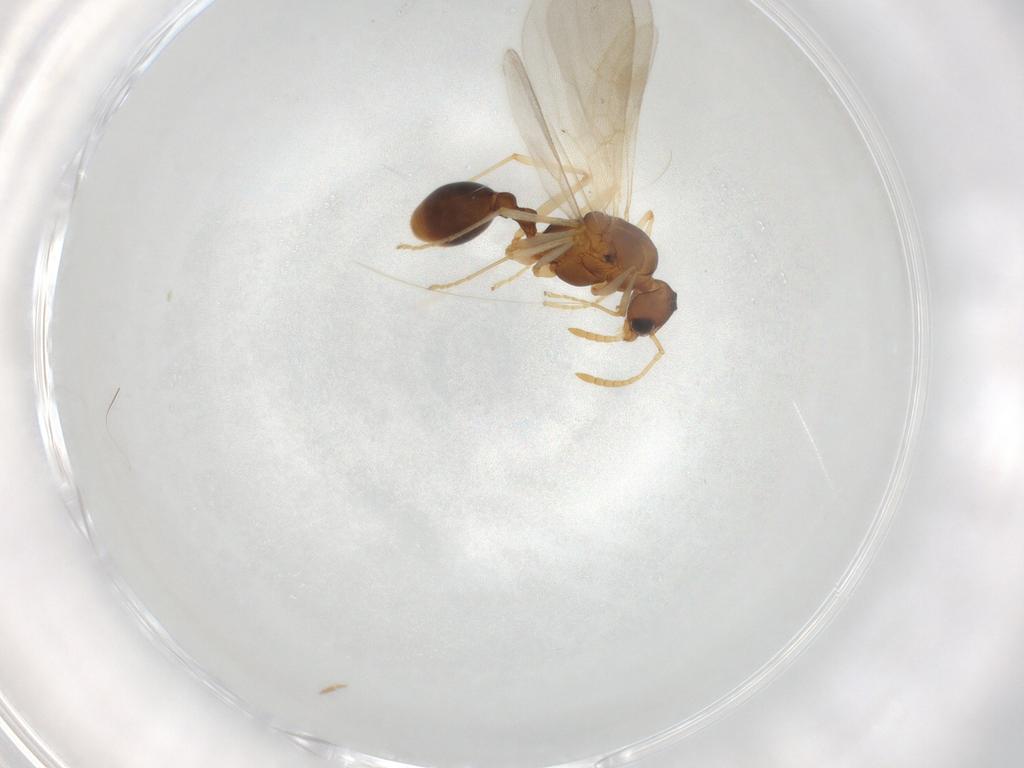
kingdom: Animalia
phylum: Arthropoda
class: Insecta
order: Hymenoptera
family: Formicidae
